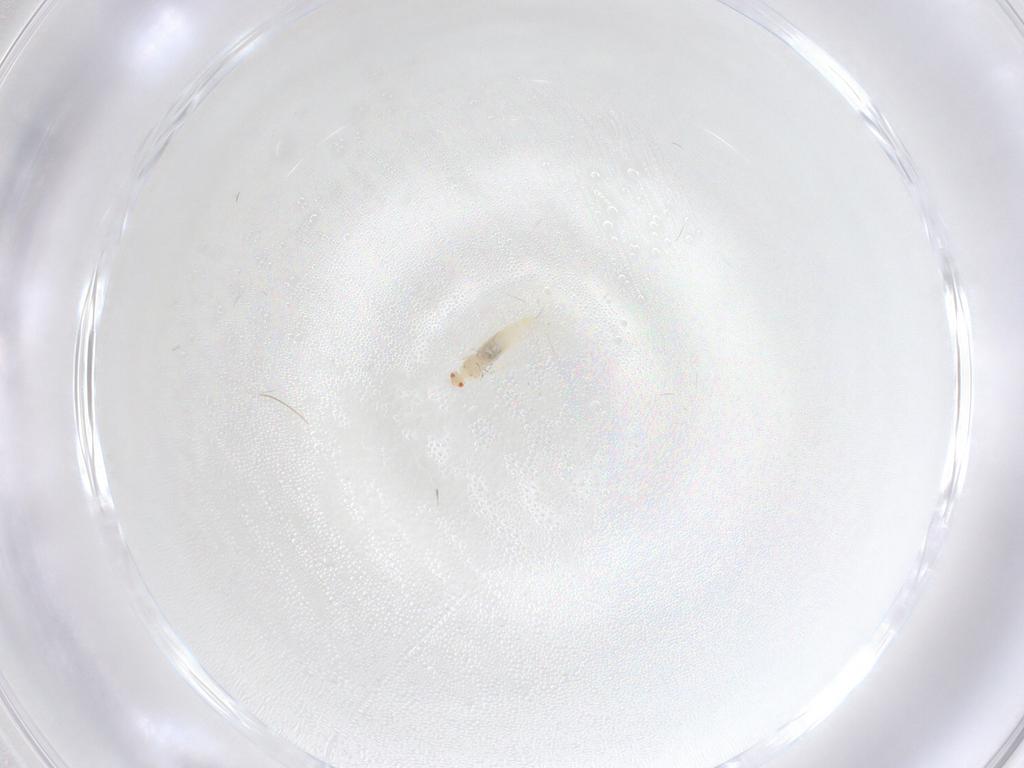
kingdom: Animalia
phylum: Arthropoda
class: Insecta
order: Diptera
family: Cecidomyiidae
